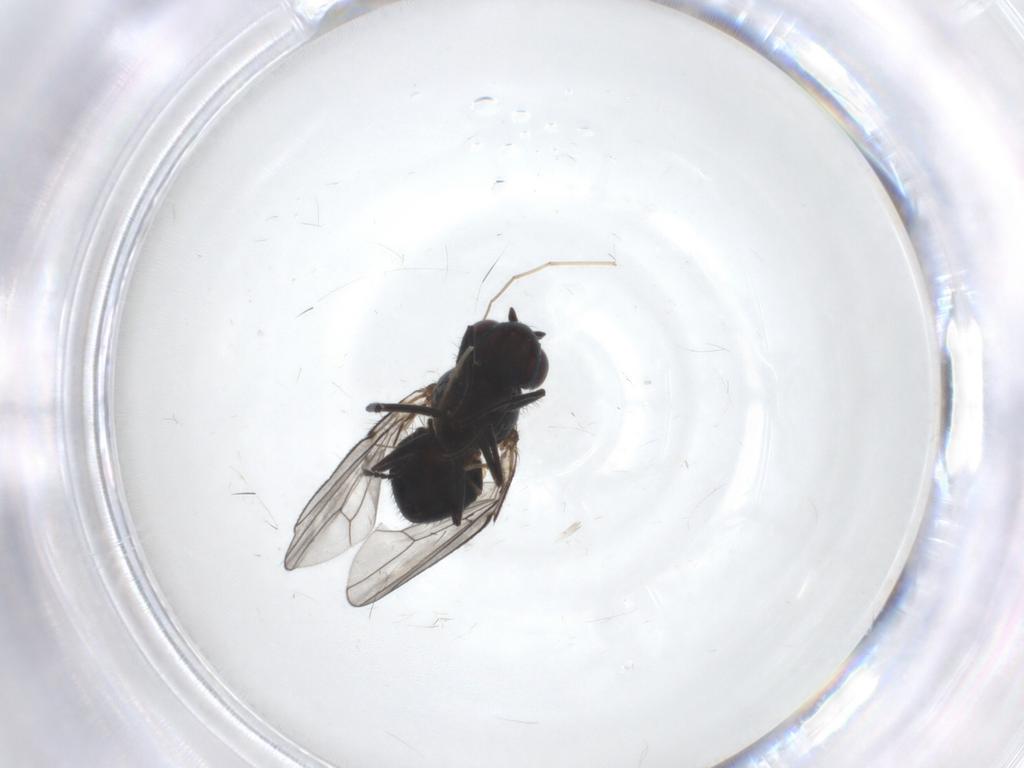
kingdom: Animalia
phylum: Arthropoda
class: Insecta
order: Diptera
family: Ephydridae
